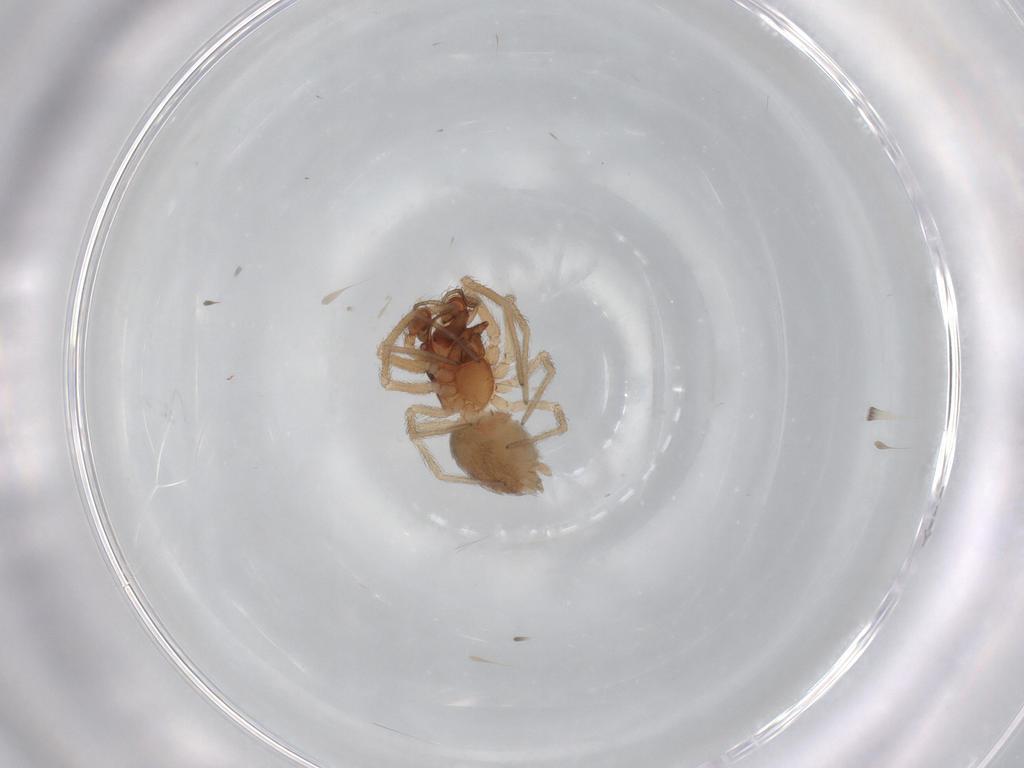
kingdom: Animalia
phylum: Arthropoda
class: Arachnida
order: Araneae
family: Dictynidae
